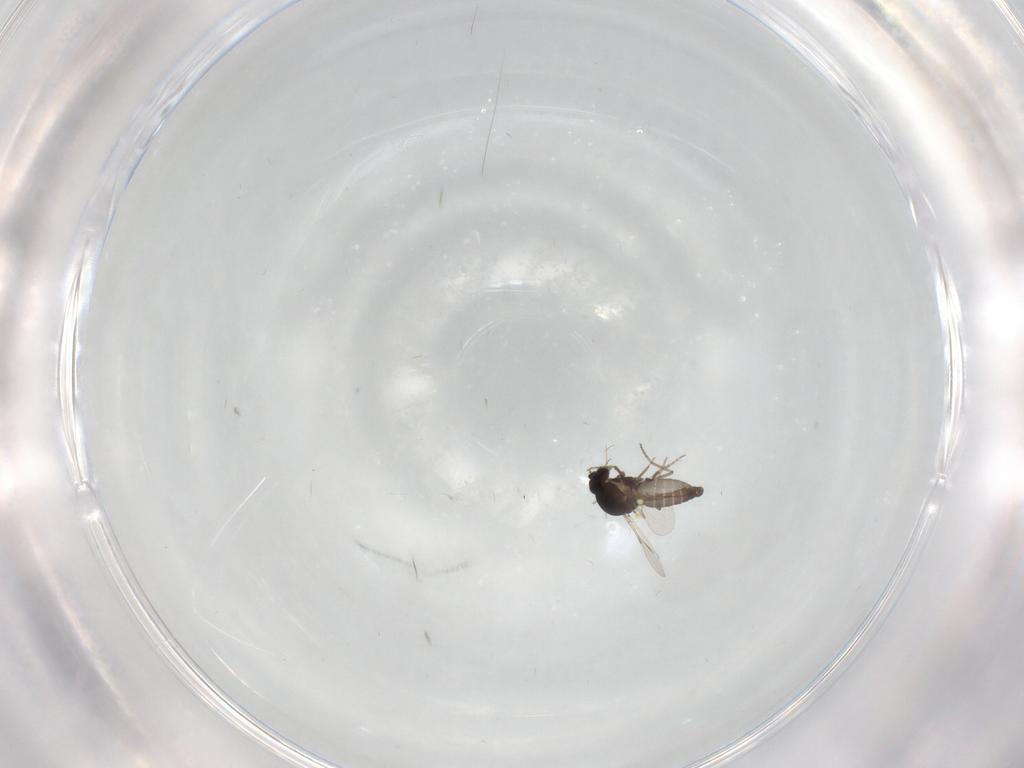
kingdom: Animalia
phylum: Arthropoda
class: Insecta
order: Diptera
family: Ceratopogonidae
